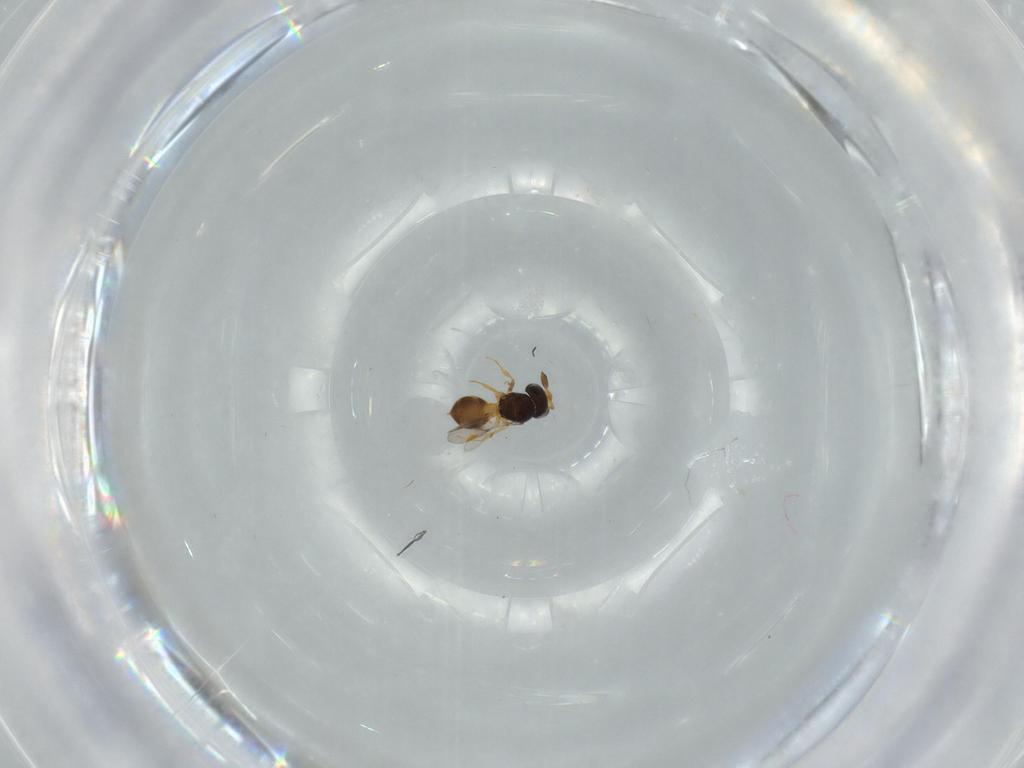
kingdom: Animalia
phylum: Arthropoda
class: Insecta
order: Hymenoptera
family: Scelionidae
